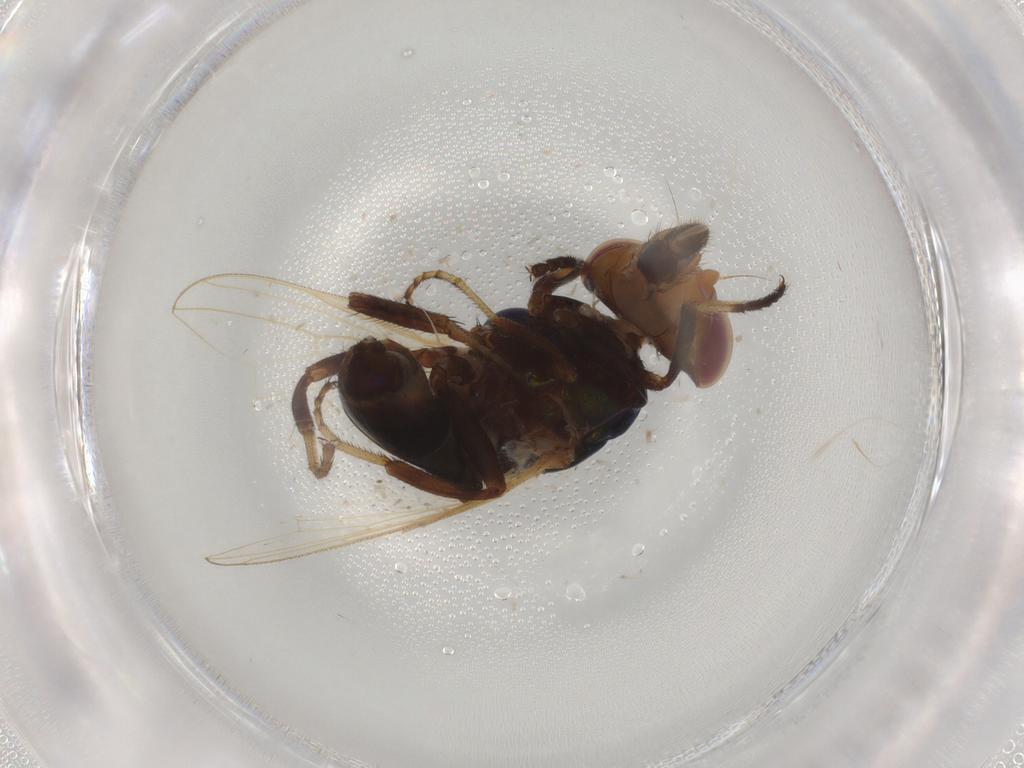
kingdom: Animalia
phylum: Arthropoda
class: Insecta
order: Diptera
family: Ulidiidae
